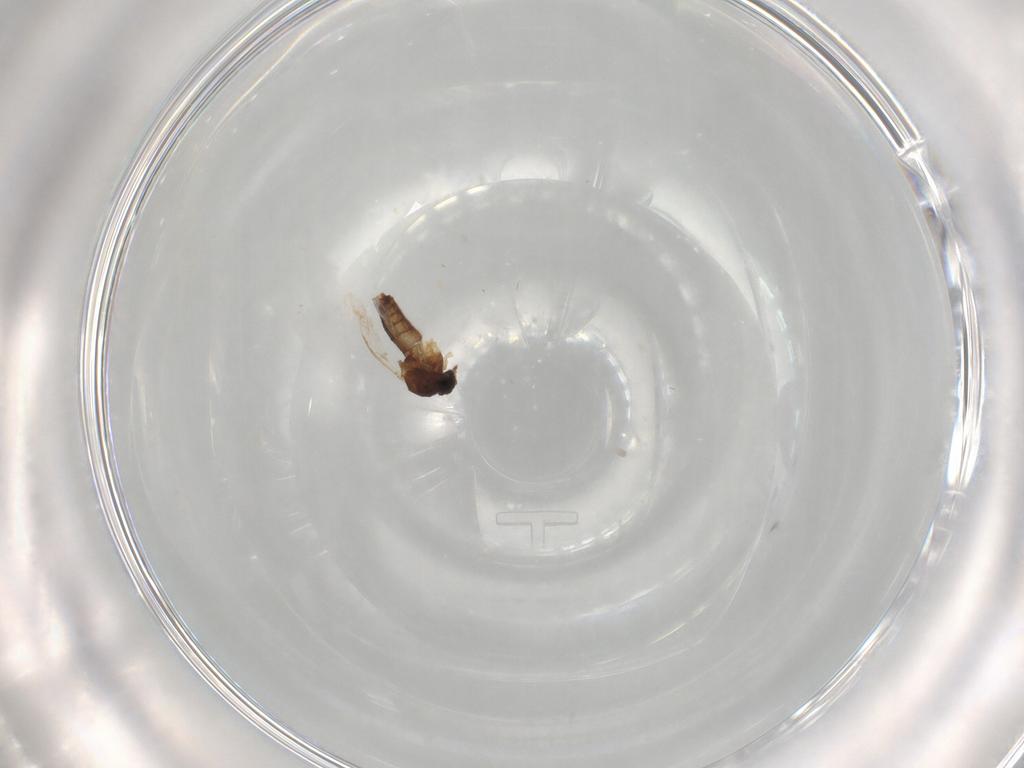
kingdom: Animalia
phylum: Arthropoda
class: Insecta
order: Diptera
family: Ceratopogonidae
